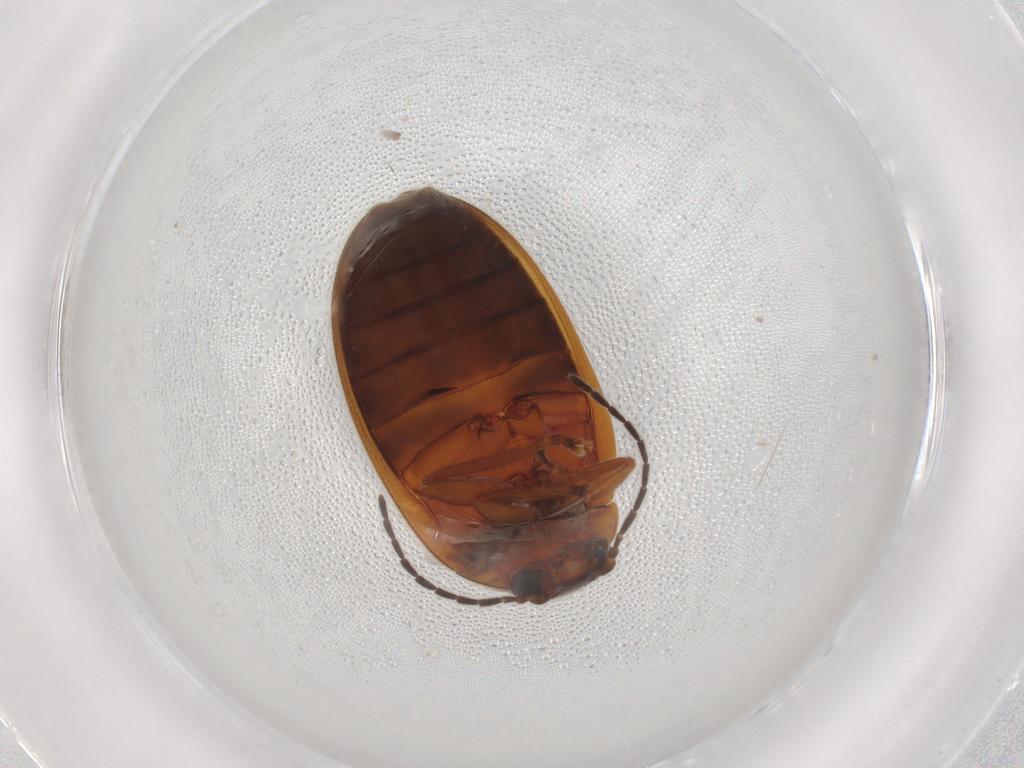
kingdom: Animalia
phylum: Arthropoda
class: Insecta
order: Coleoptera
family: Scirtidae
